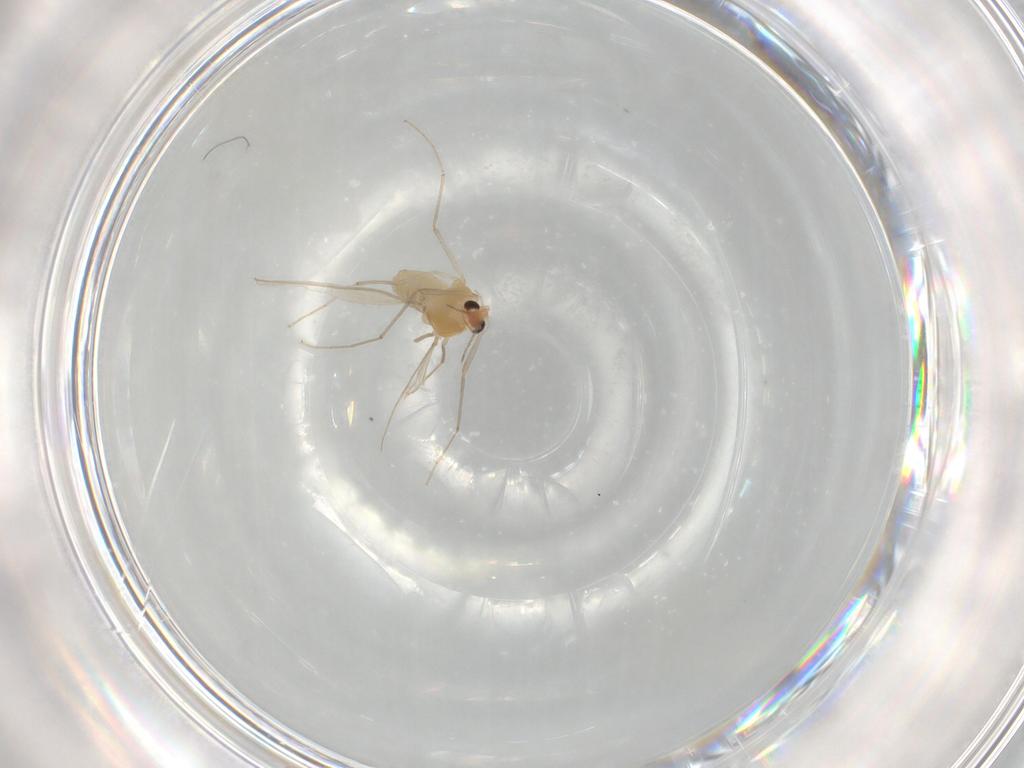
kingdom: Animalia
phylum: Arthropoda
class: Insecta
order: Diptera
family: Chironomidae
